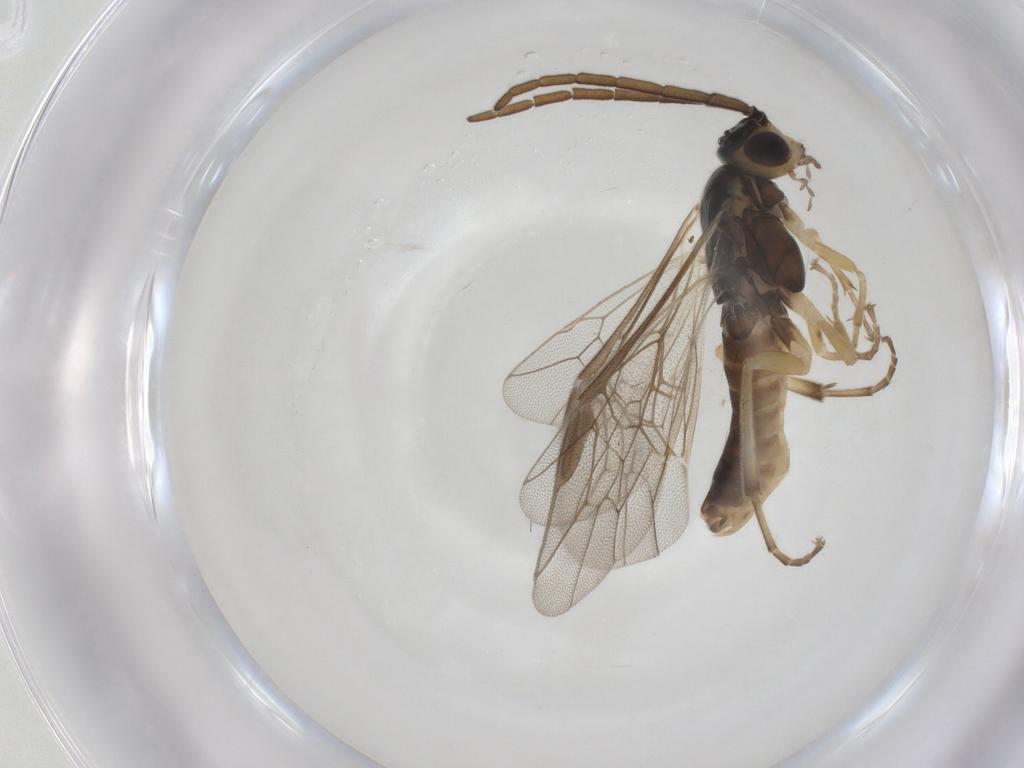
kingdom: Animalia
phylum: Arthropoda
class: Insecta
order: Hymenoptera
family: Tenthredinidae
